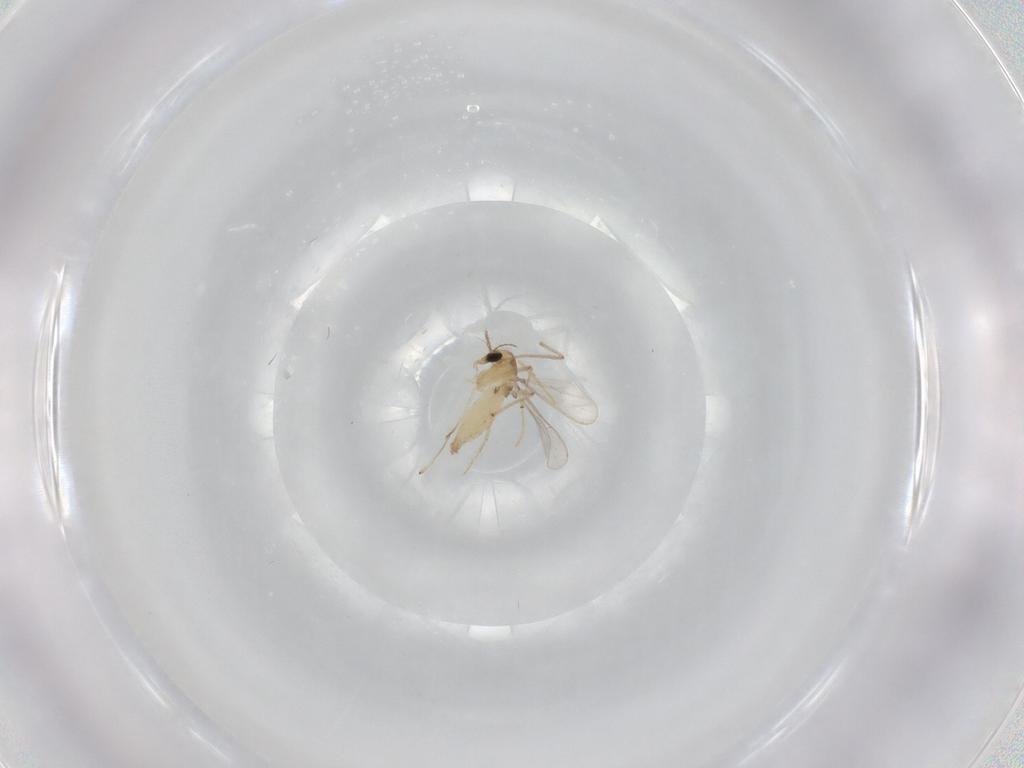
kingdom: Animalia
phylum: Arthropoda
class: Insecta
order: Diptera
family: Chironomidae
